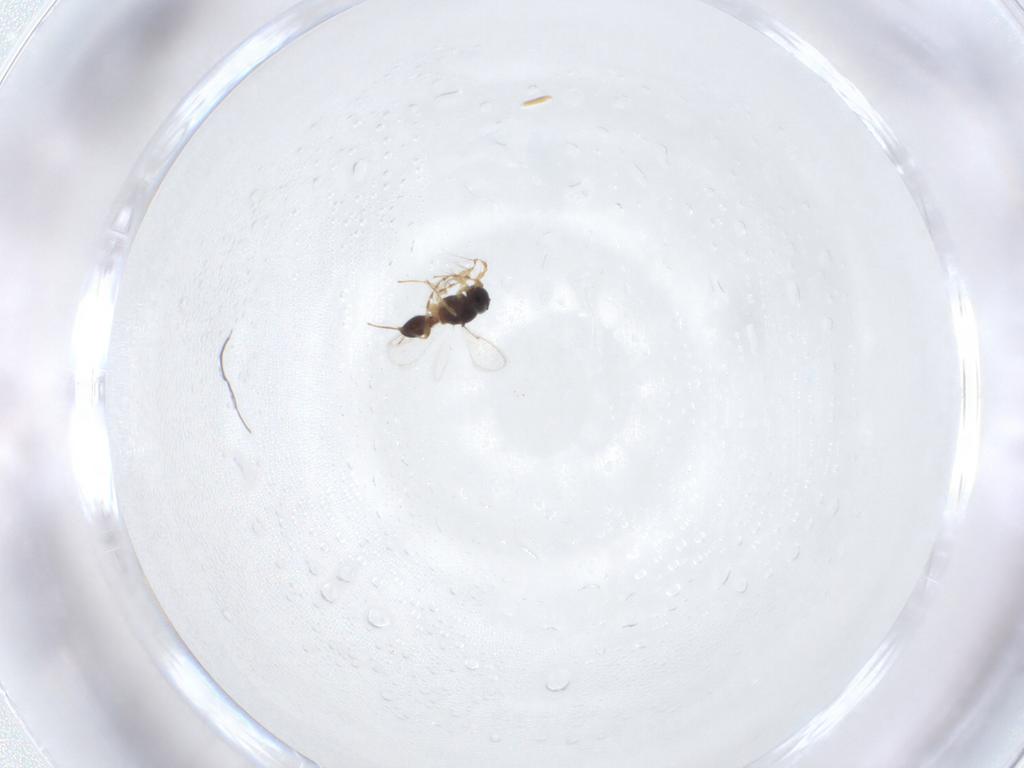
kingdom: Animalia
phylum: Arthropoda
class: Insecta
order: Hymenoptera
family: Platygastridae
